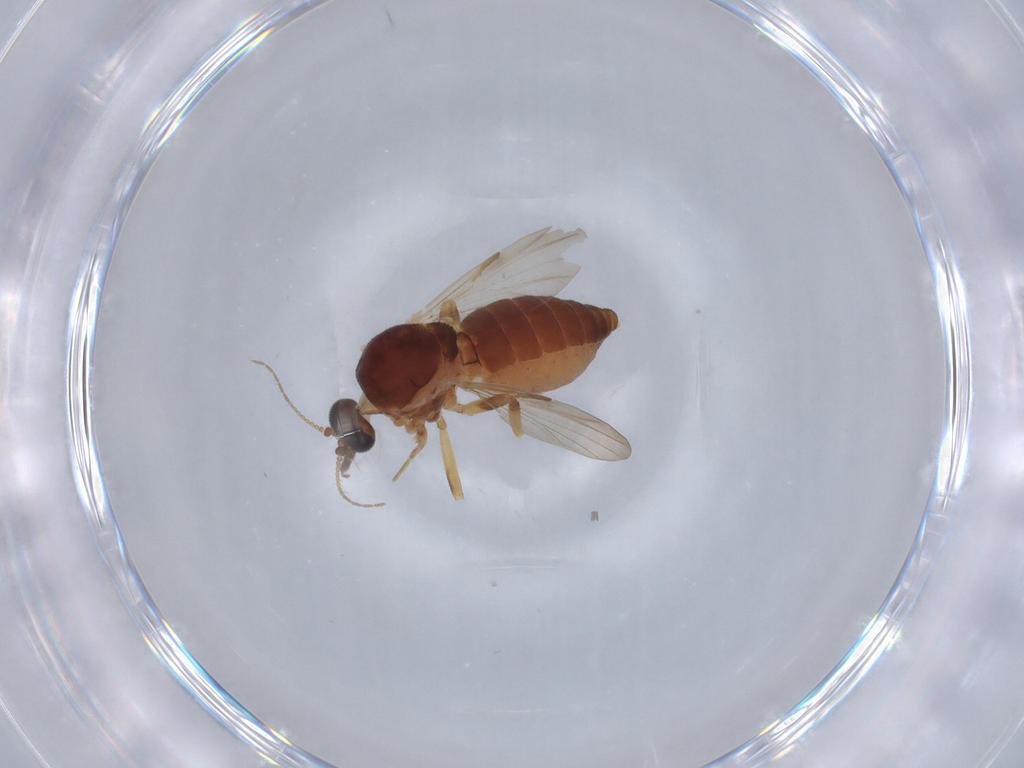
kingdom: Animalia
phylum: Arthropoda
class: Insecta
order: Diptera
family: Ceratopogonidae
